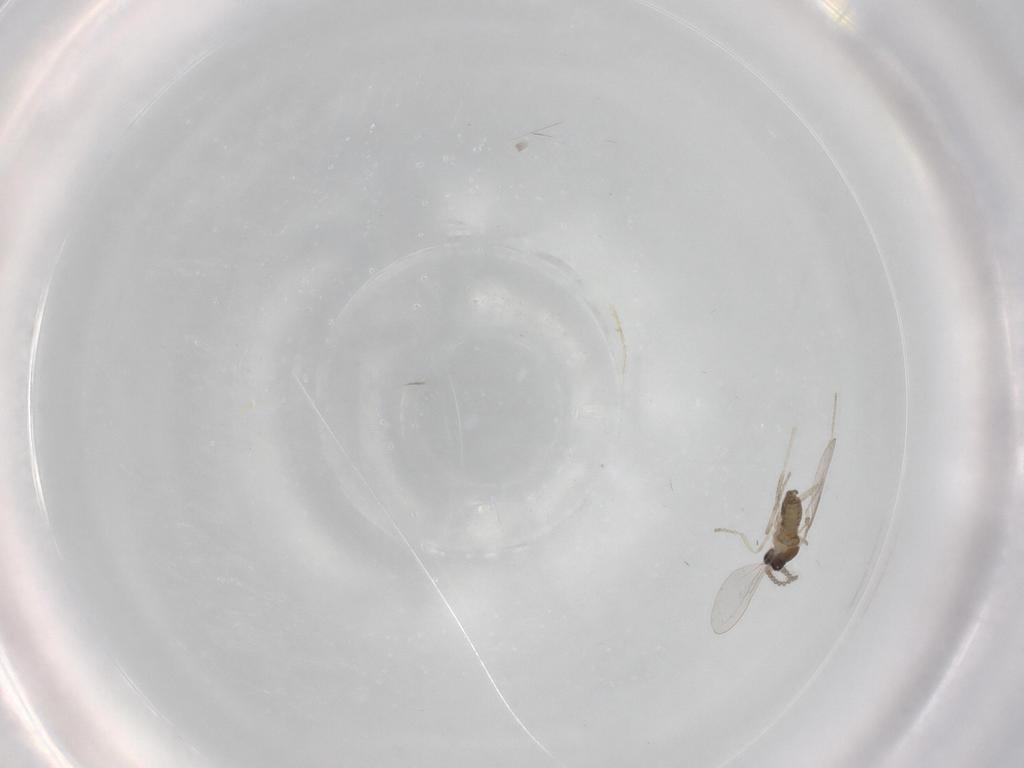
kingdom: Animalia
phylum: Arthropoda
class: Insecta
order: Diptera
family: Cecidomyiidae
